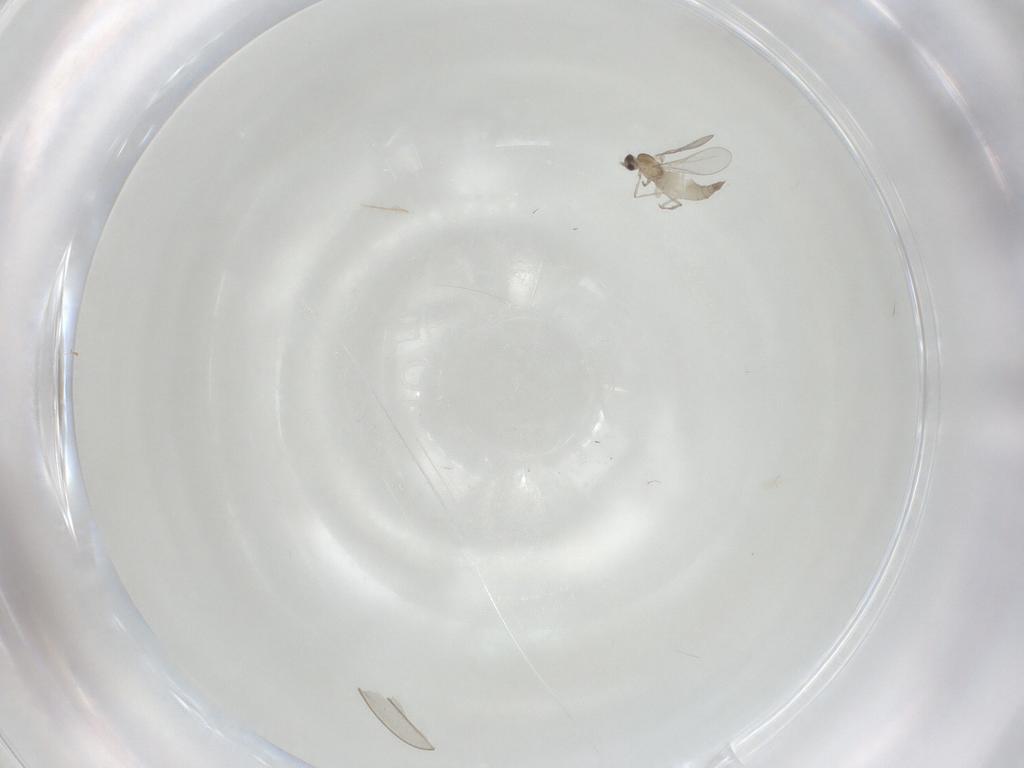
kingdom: Animalia
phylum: Arthropoda
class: Insecta
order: Diptera
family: Cecidomyiidae
